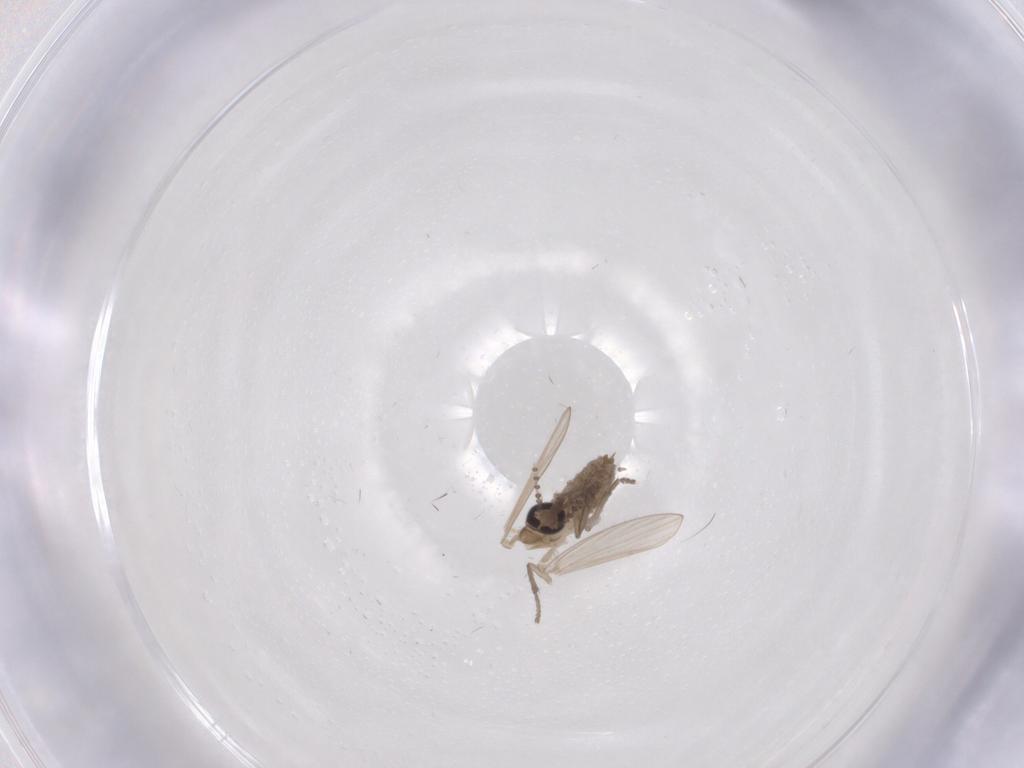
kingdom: Animalia
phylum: Arthropoda
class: Insecta
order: Diptera
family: Psychodidae
